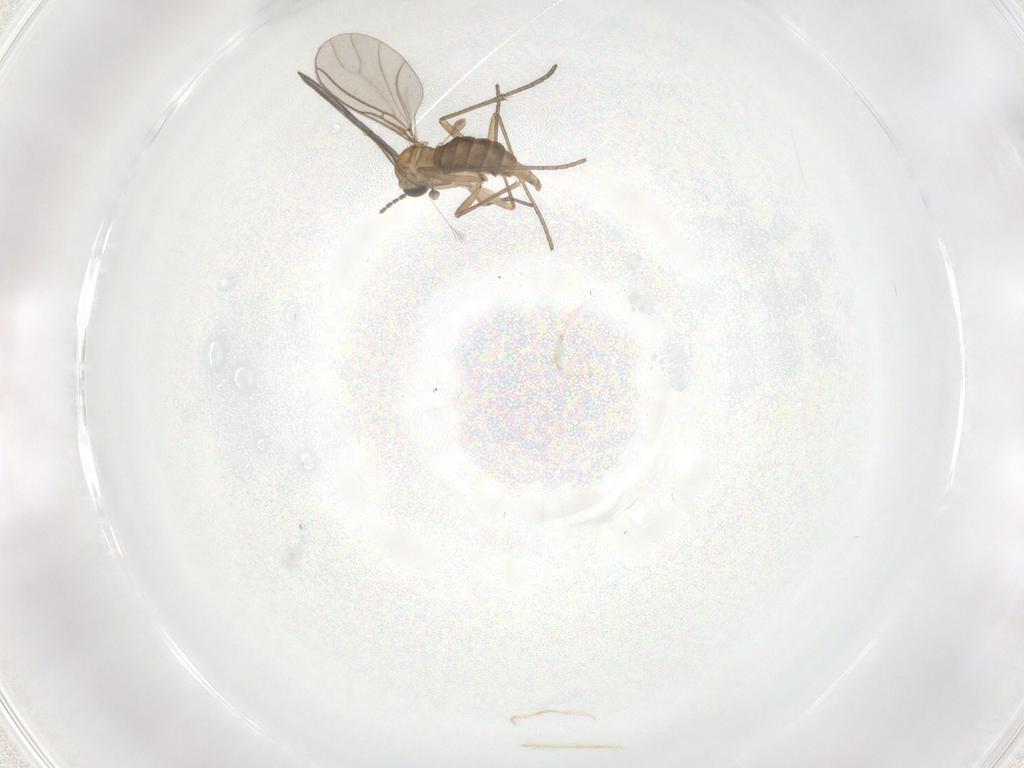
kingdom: Animalia
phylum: Arthropoda
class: Insecta
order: Diptera
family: Sciaridae
